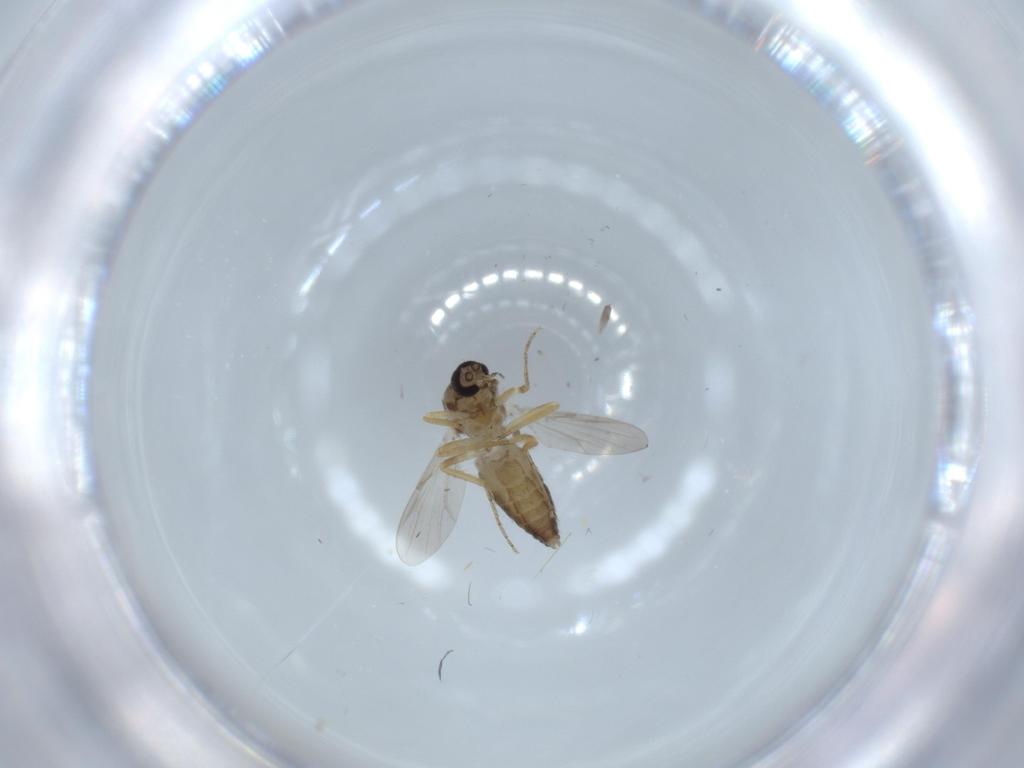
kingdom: Animalia
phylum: Arthropoda
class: Insecta
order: Diptera
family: Ceratopogonidae
